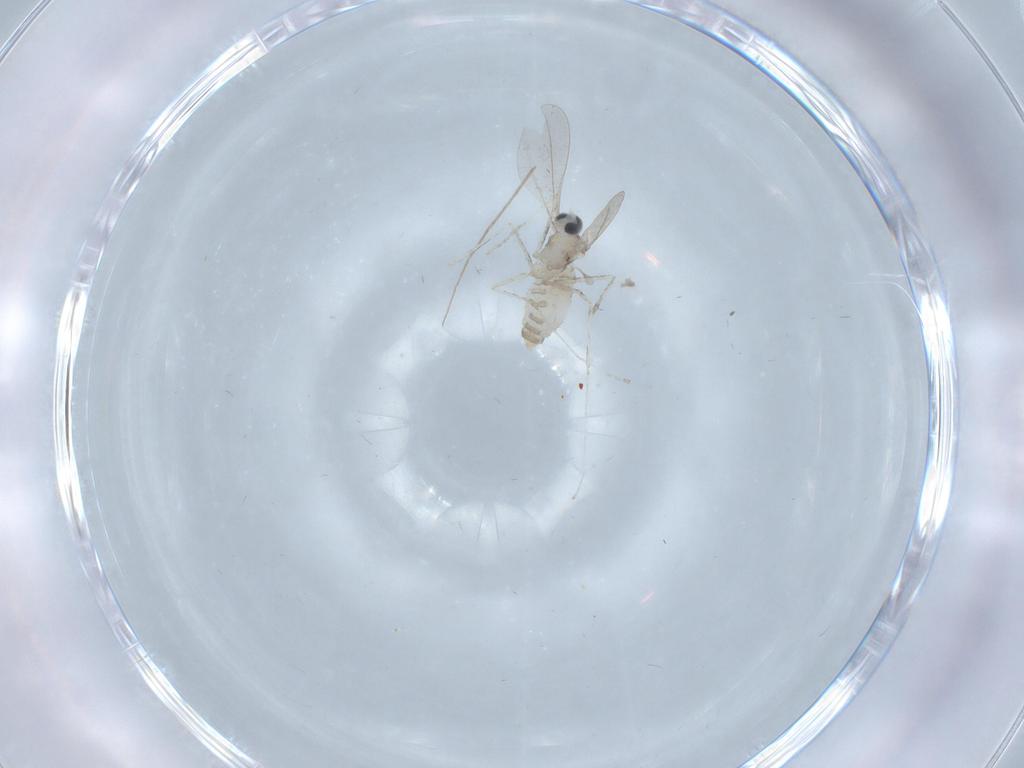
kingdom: Animalia
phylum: Arthropoda
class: Insecta
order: Diptera
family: Cecidomyiidae
